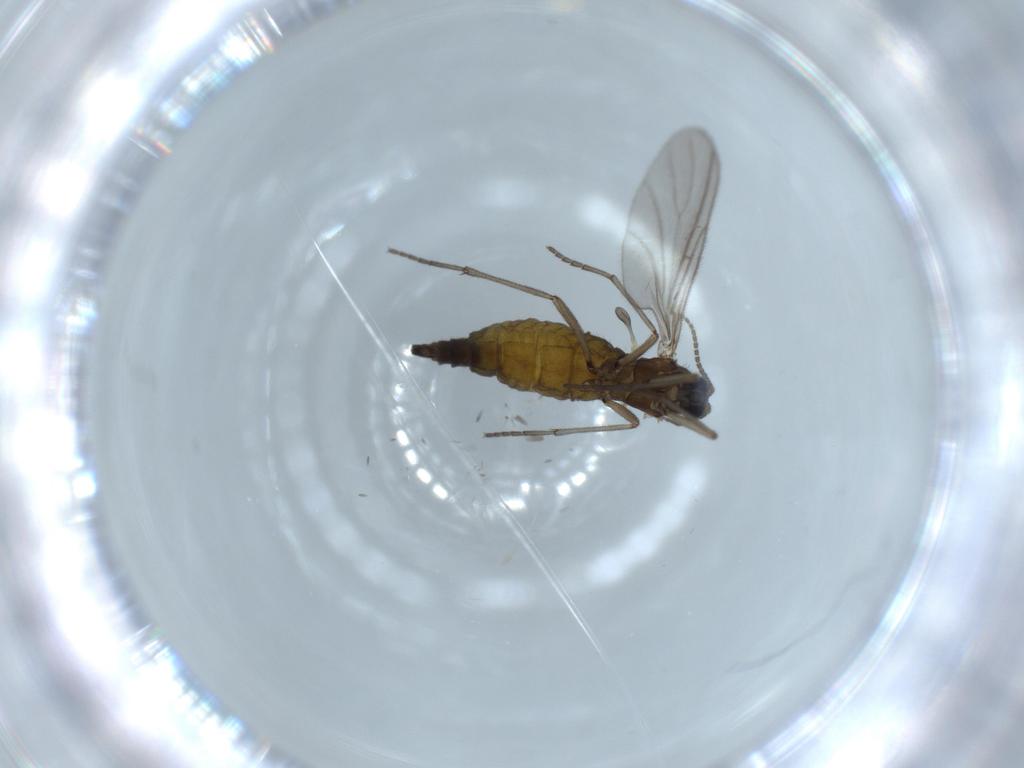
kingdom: Animalia
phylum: Arthropoda
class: Insecta
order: Diptera
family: Sciaridae
